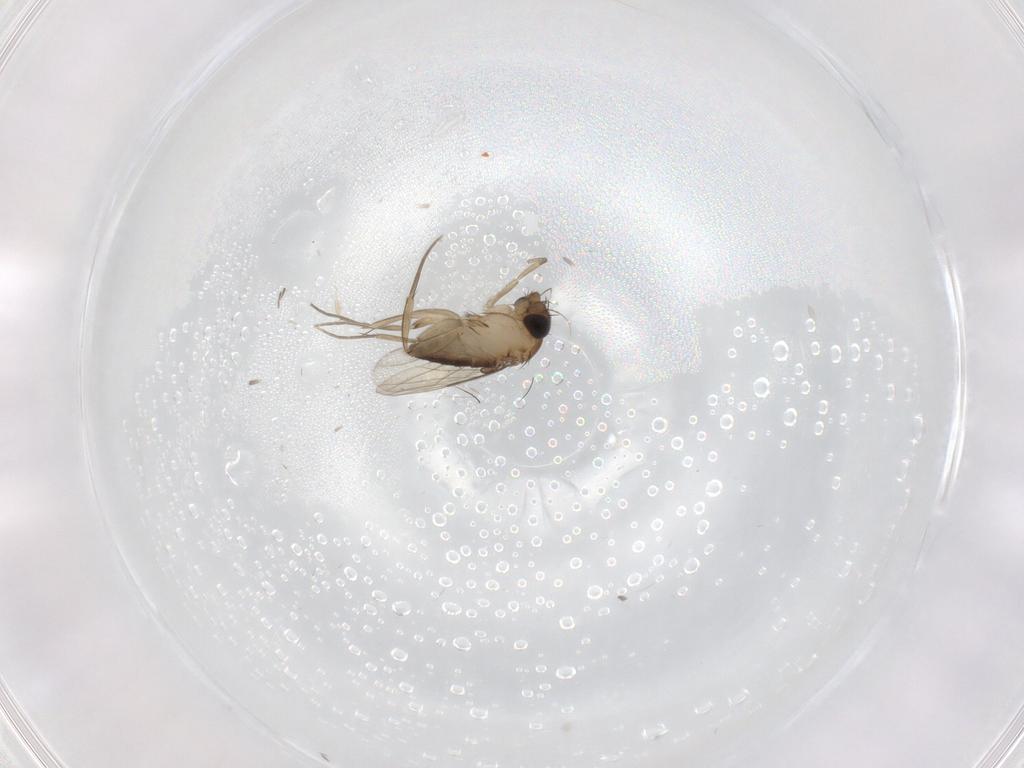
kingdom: Animalia
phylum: Arthropoda
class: Insecta
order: Diptera
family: Phoridae
